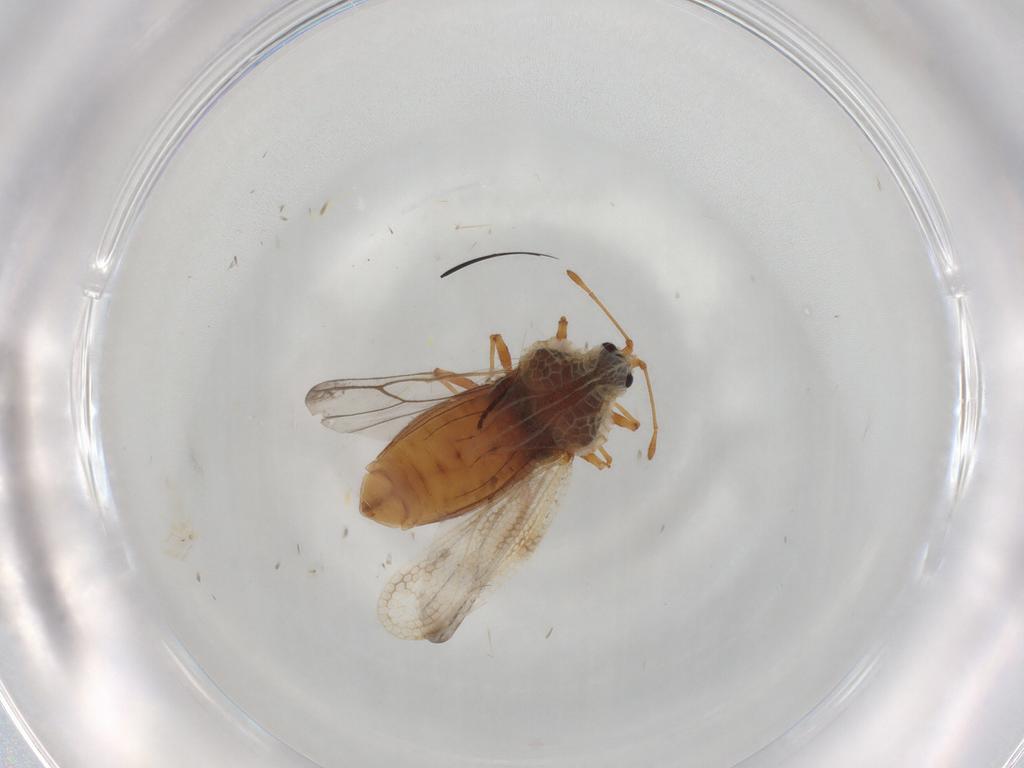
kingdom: Animalia
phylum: Arthropoda
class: Insecta
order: Hemiptera
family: Tingidae
